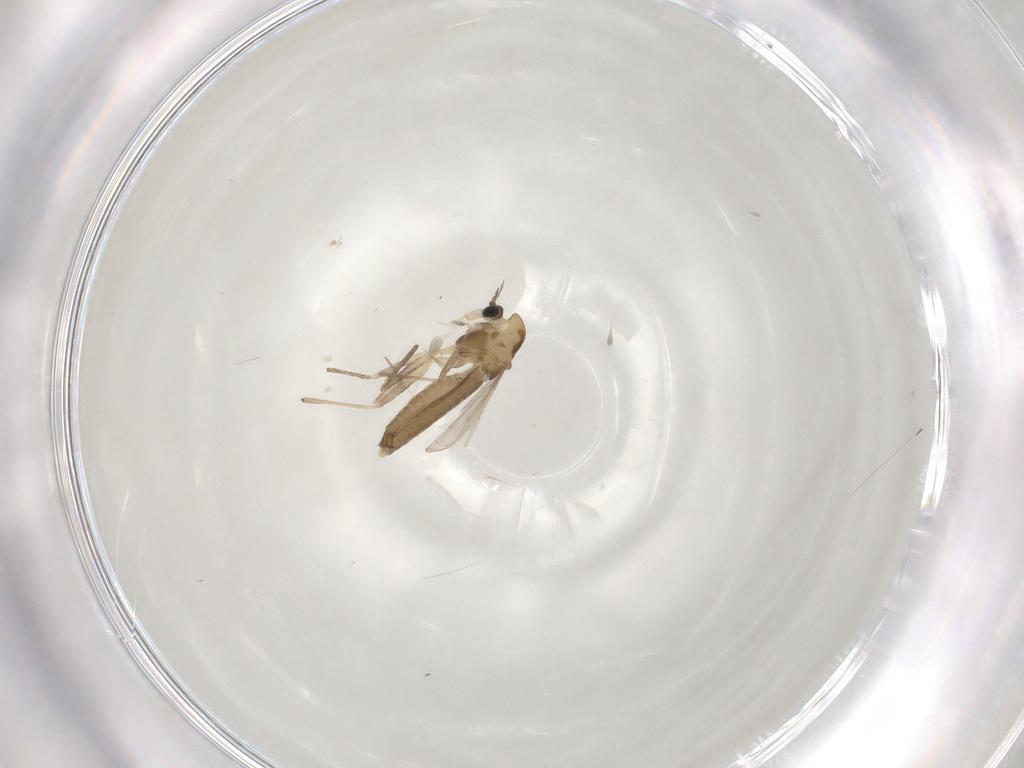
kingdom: Animalia
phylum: Arthropoda
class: Insecta
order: Diptera
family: Chironomidae
